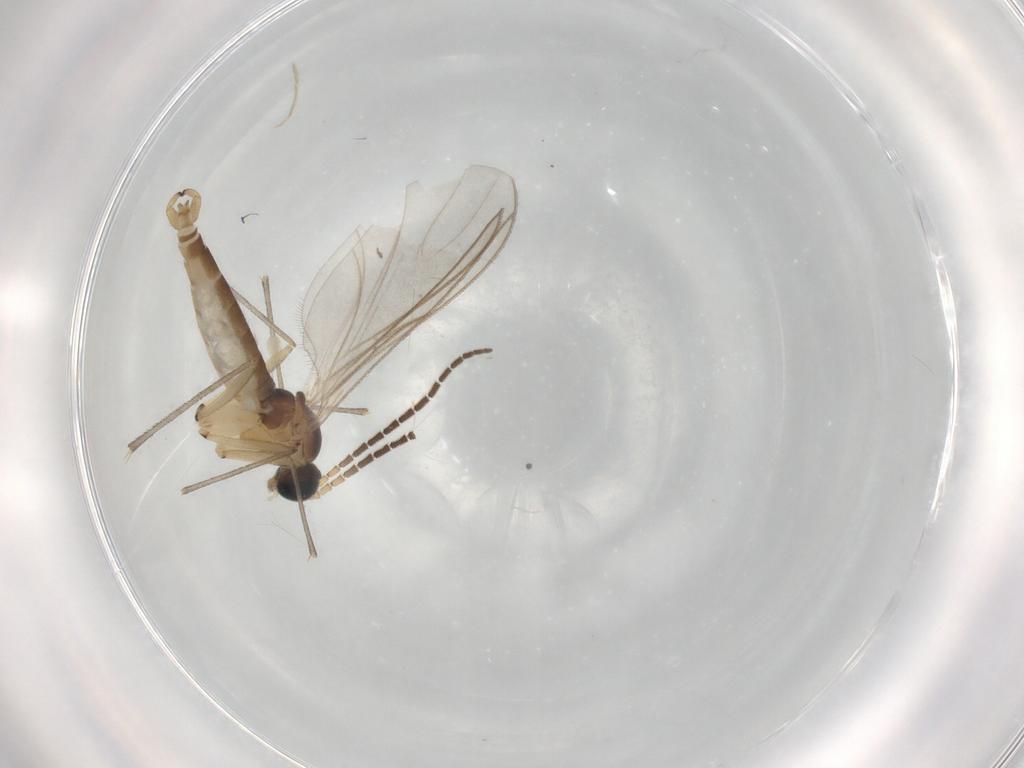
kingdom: Animalia
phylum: Arthropoda
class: Insecta
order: Diptera
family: Sciaridae
